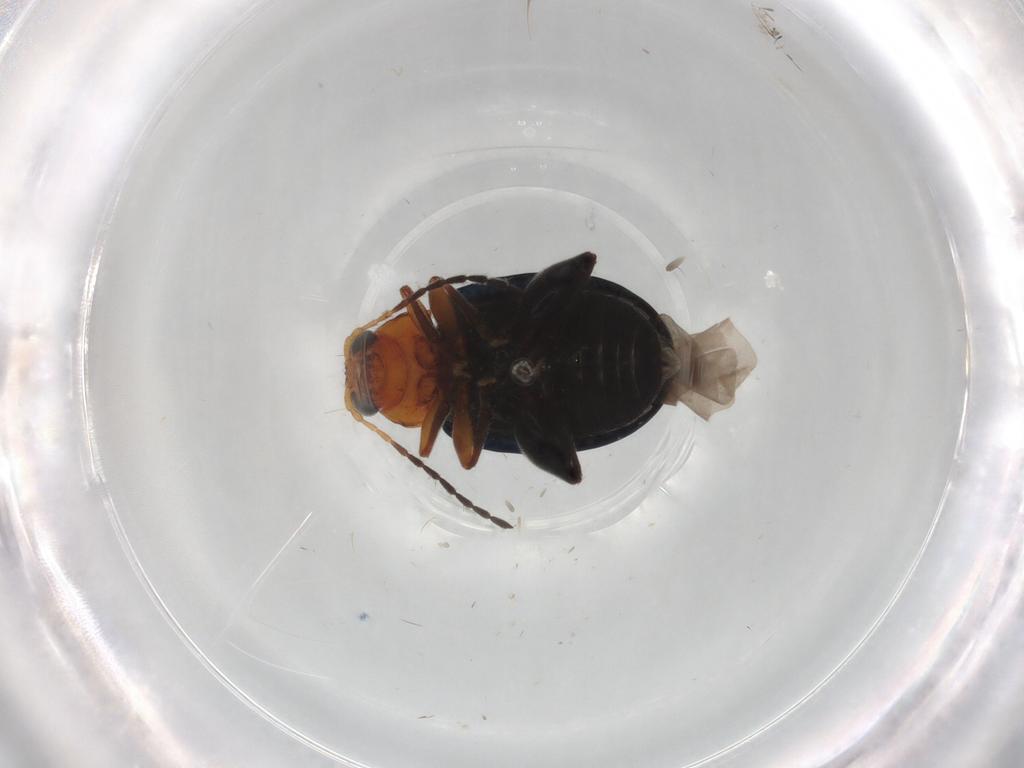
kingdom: Animalia
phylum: Arthropoda
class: Insecta
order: Coleoptera
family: Chrysomelidae
